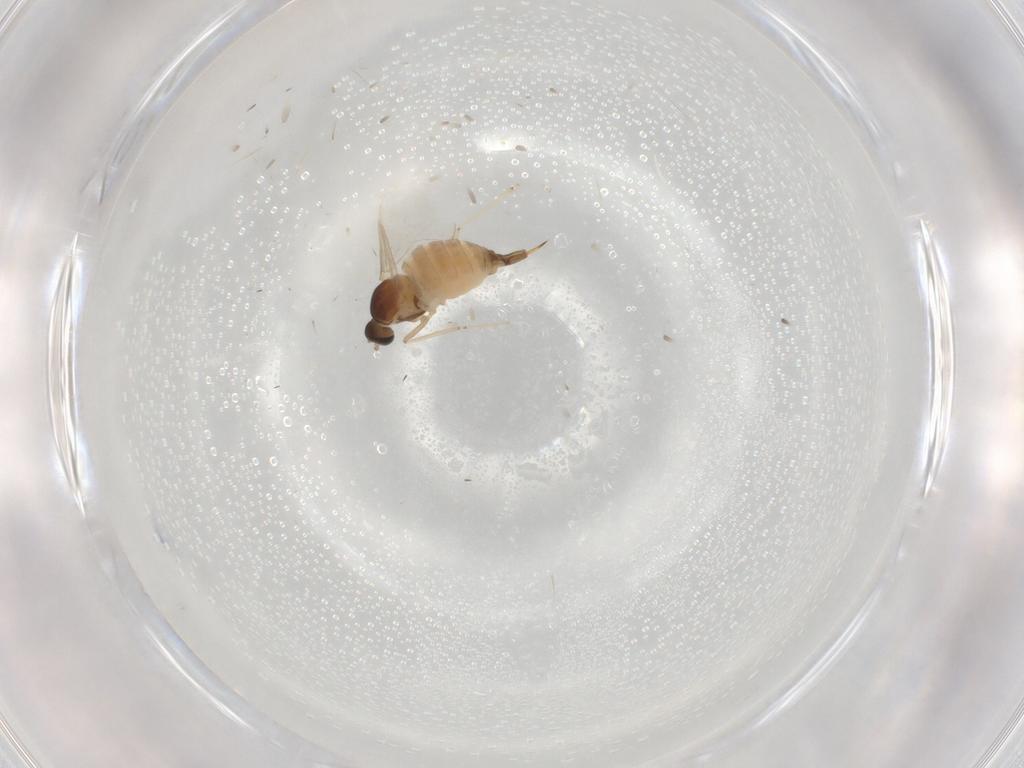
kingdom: Animalia
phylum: Arthropoda
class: Insecta
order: Diptera
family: Cecidomyiidae
